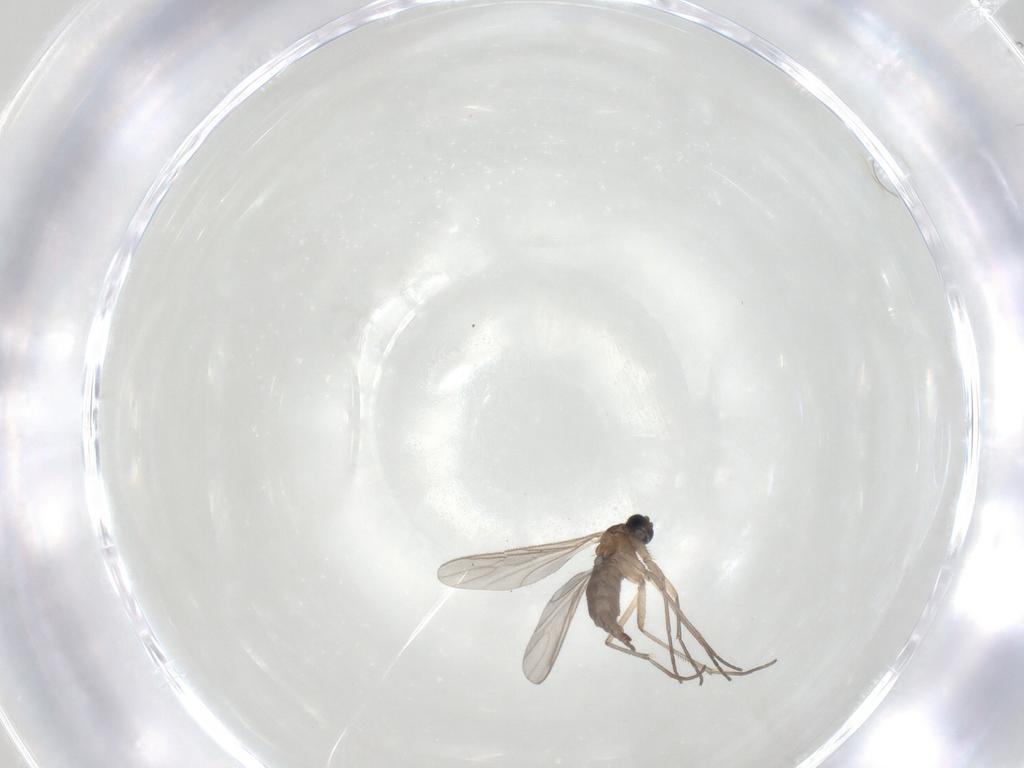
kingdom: Animalia
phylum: Arthropoda
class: Insecta
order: Diptera
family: Sciaridae
